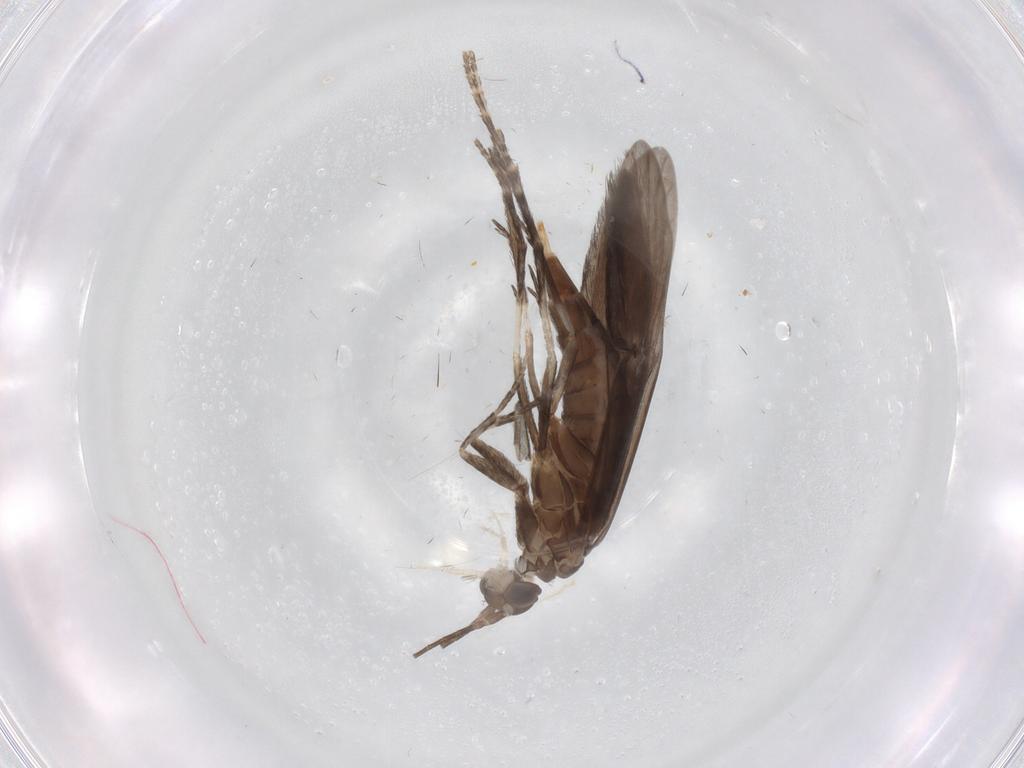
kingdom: Animalia
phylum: Arthropoda
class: Insecta
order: Trichoptera
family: Xiphocentronidae
